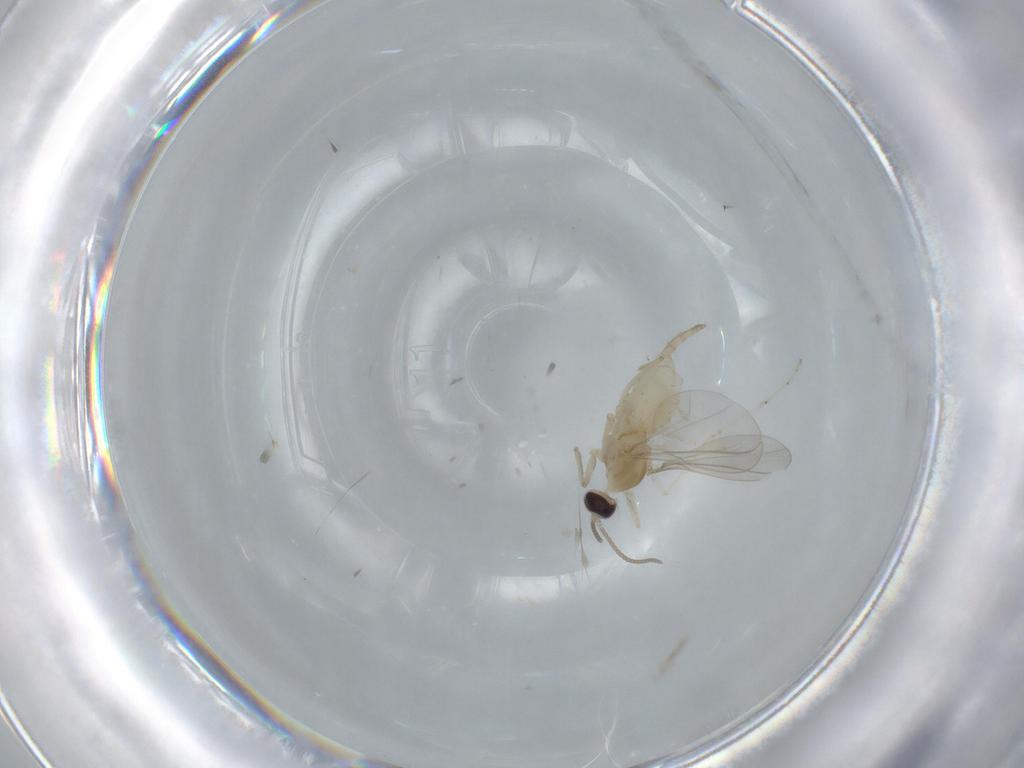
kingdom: Animalia
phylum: Arthropoda
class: Insecta
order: Diptera
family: Cecidomyiidae
